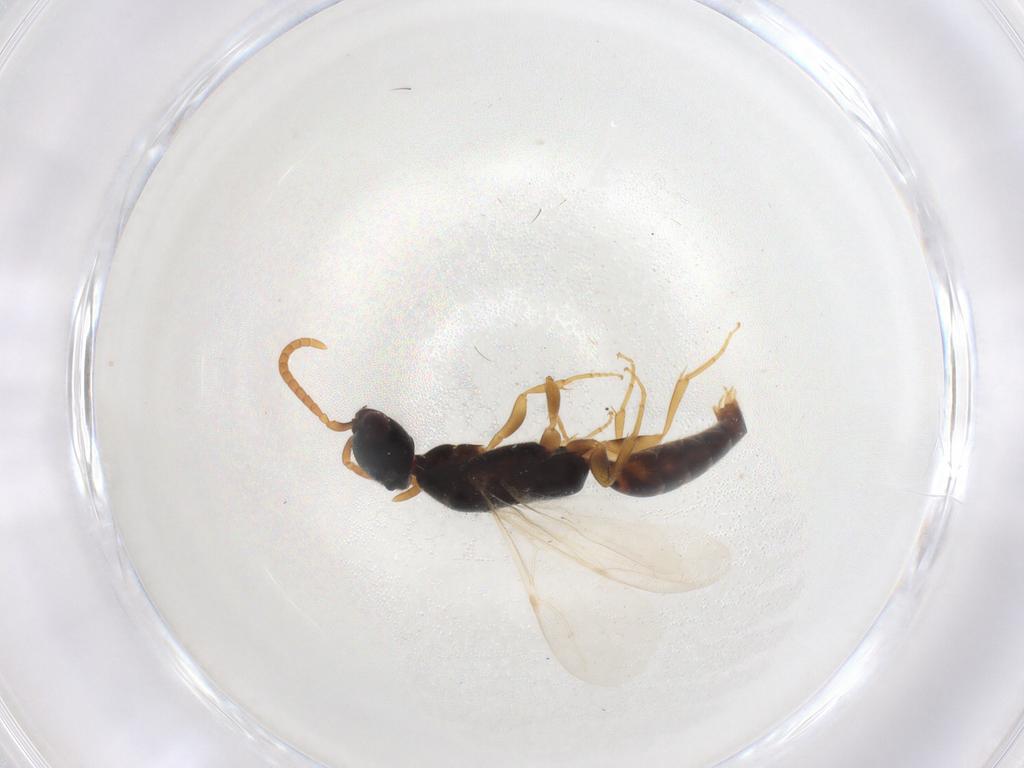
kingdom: Animalia
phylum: Arthropoda
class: Insecta
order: Hymenoptera
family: Bethylidae
